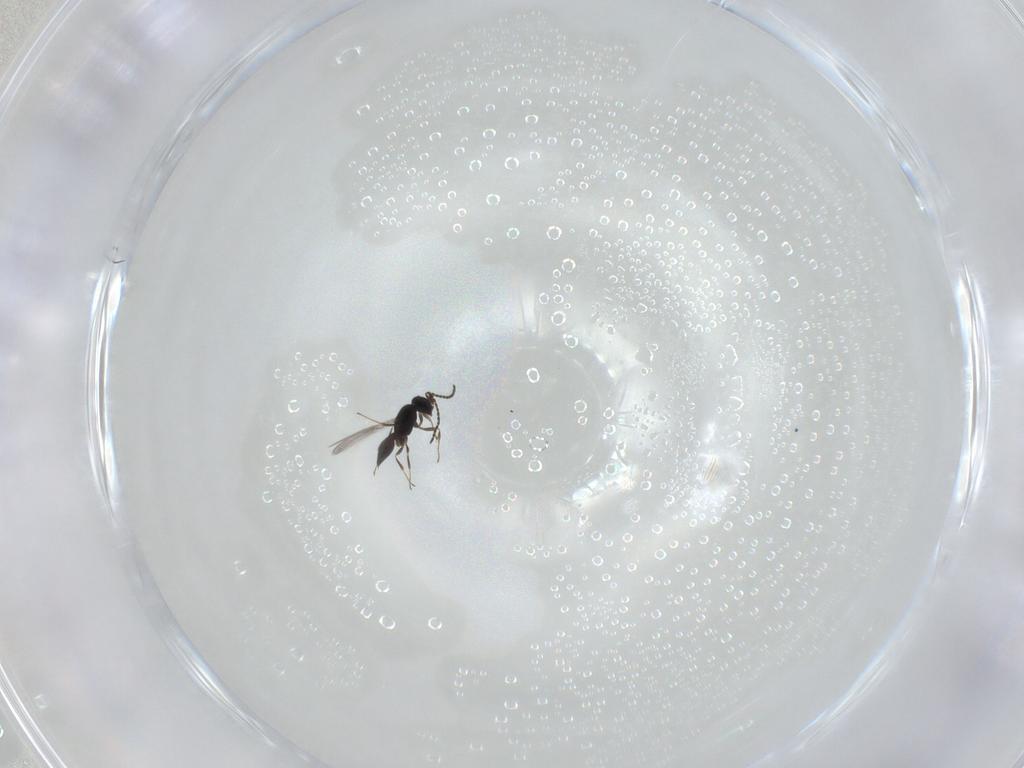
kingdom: Animalia
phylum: Arthropoda
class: Insecta
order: Hymenoptera
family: Scelionidae
